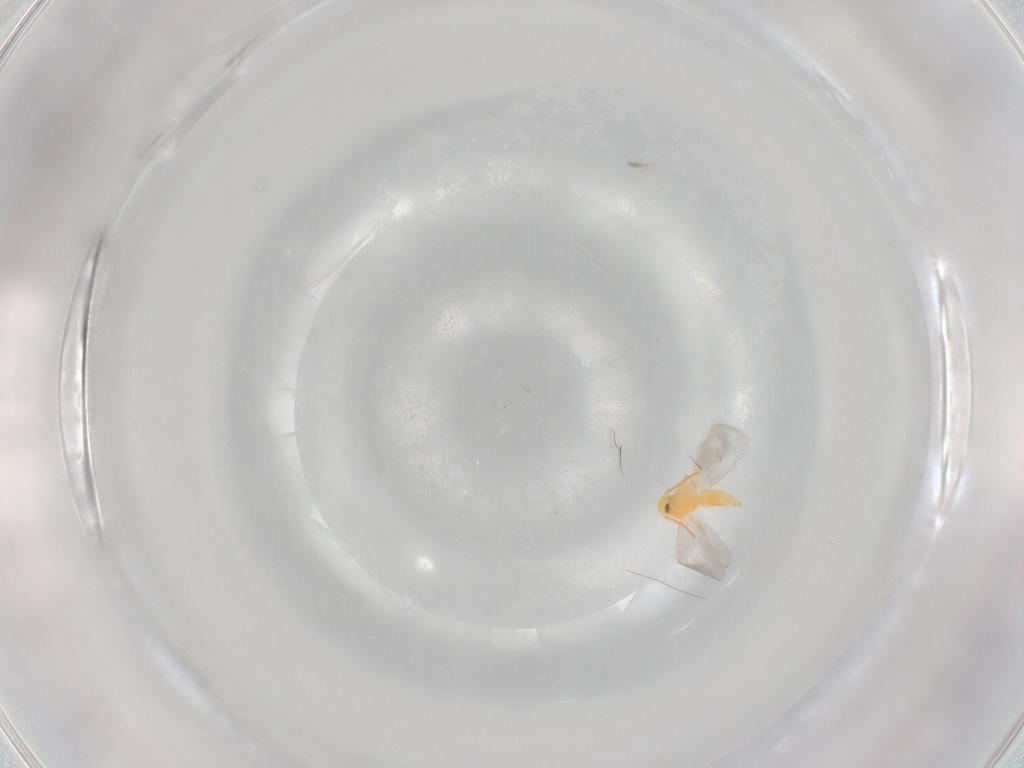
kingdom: Animalia
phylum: Arthropoda
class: Insecta
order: Hemiptera
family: Aleyrodidae
